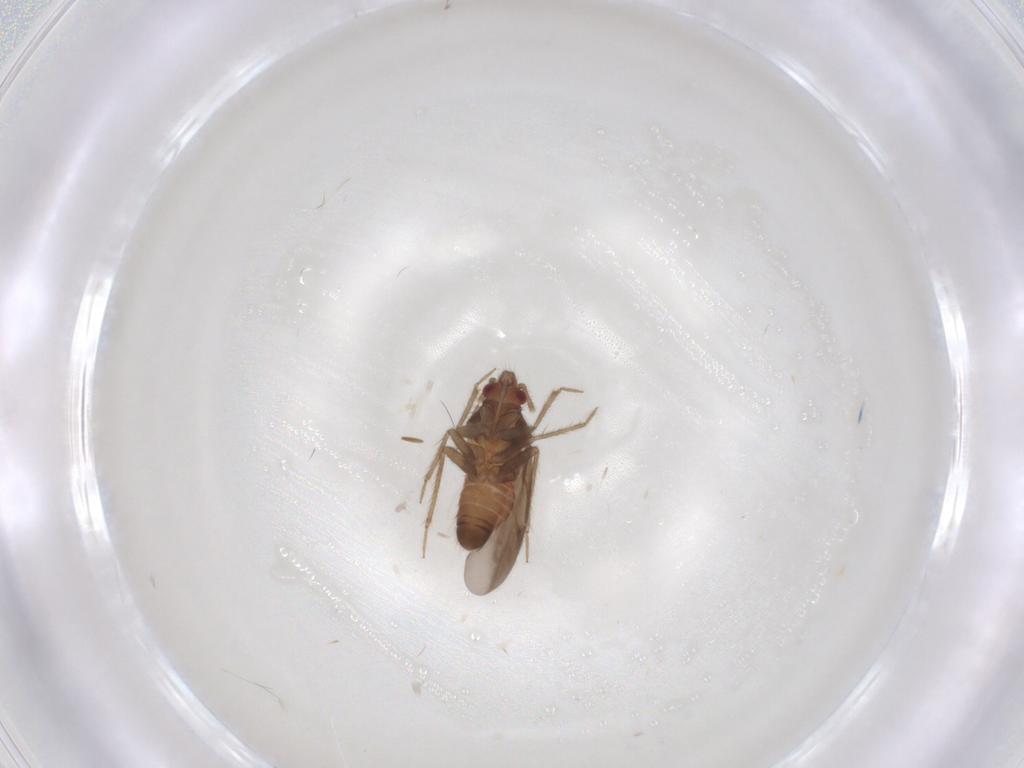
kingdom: Animalia
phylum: Arthropoda
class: Insecta
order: Hemiptera
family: Ceratocombidae
